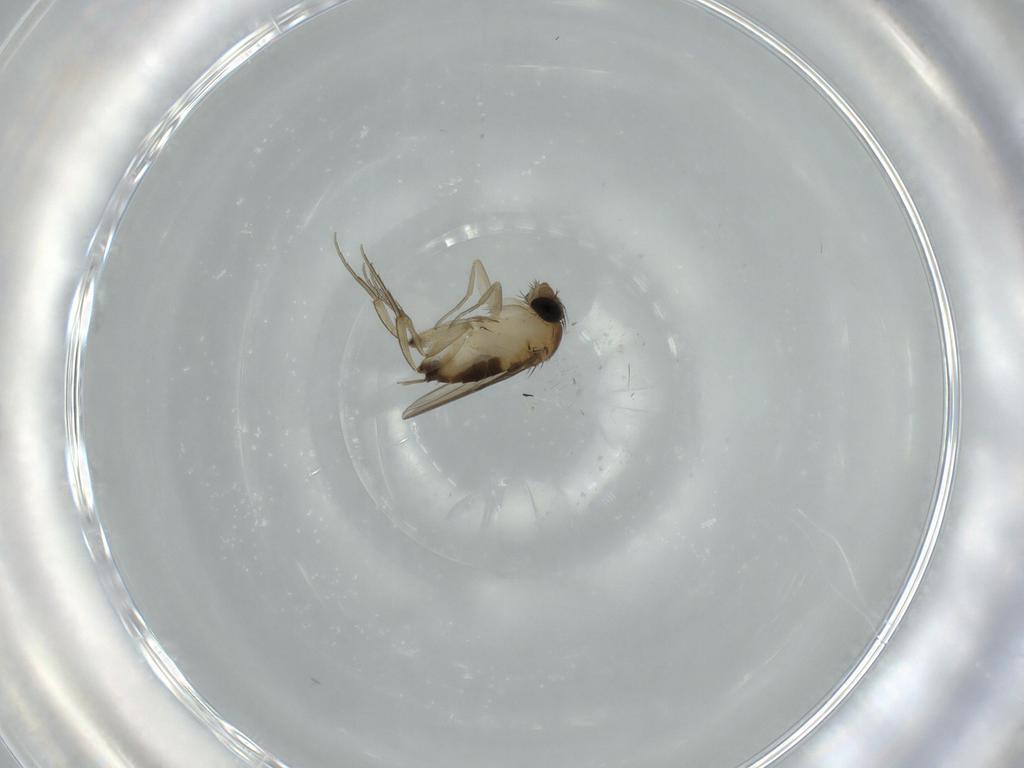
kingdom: Animalia
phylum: Arthropoda
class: Insecta
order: Diptera
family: Phoridae
